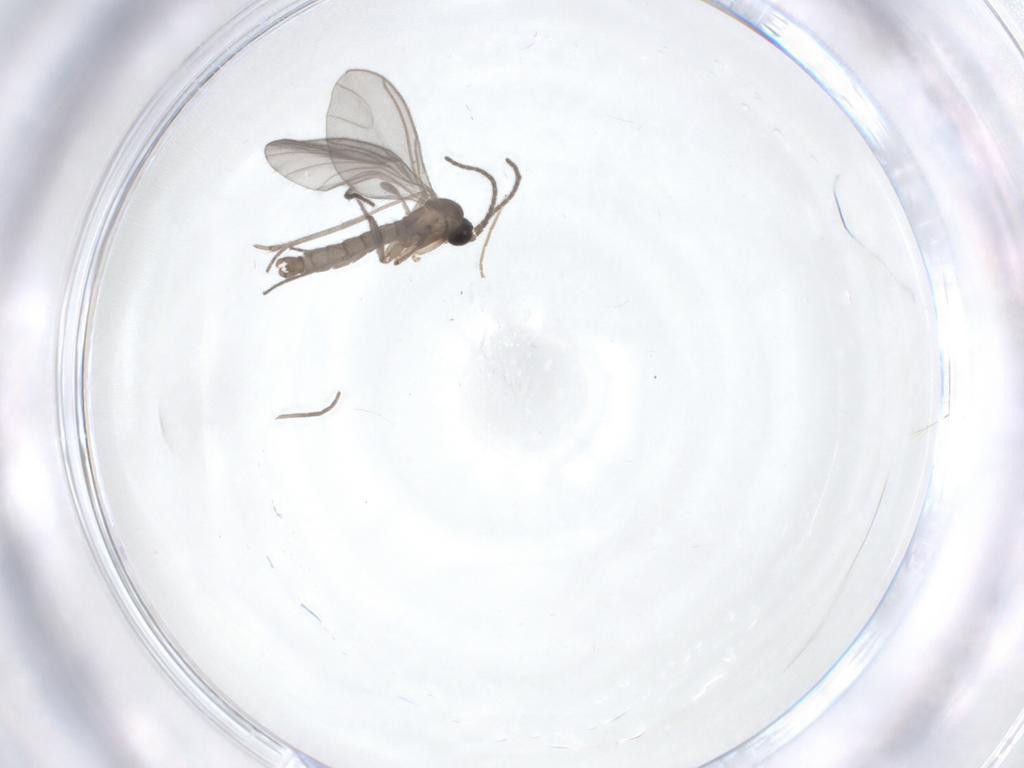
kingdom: Animalia
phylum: Arthropoda
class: Insecta
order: Diptera
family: Sciaridae
